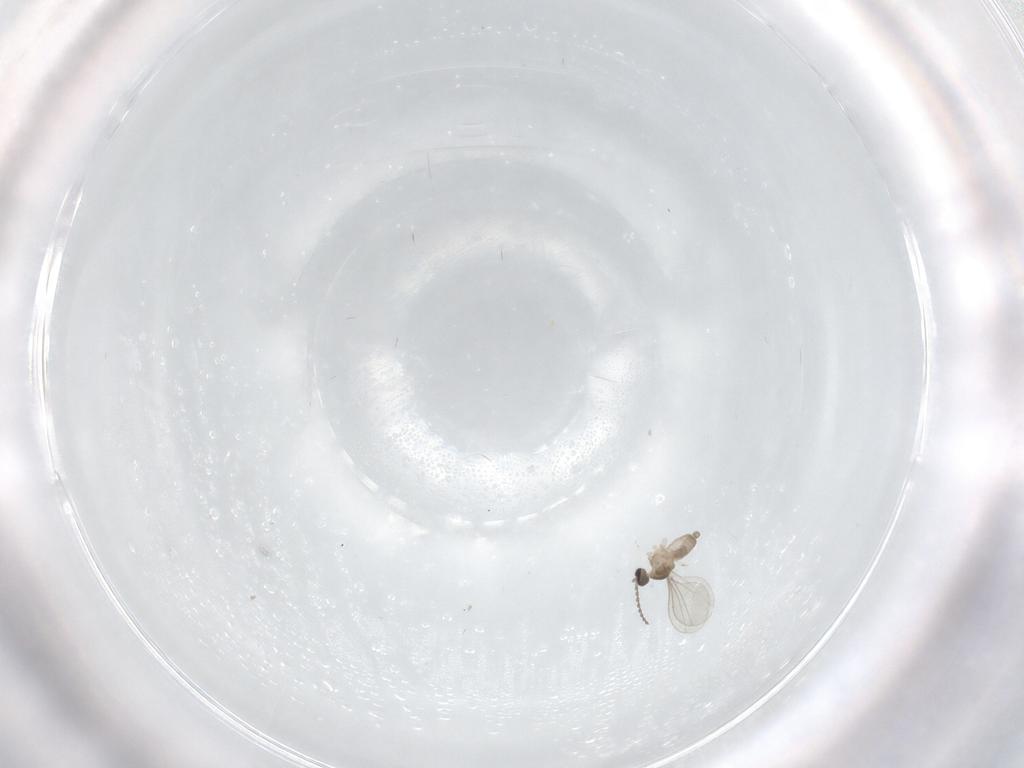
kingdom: Animalia
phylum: Arthropoda
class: Insecta
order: Diptera
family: Cecidomyiidae
